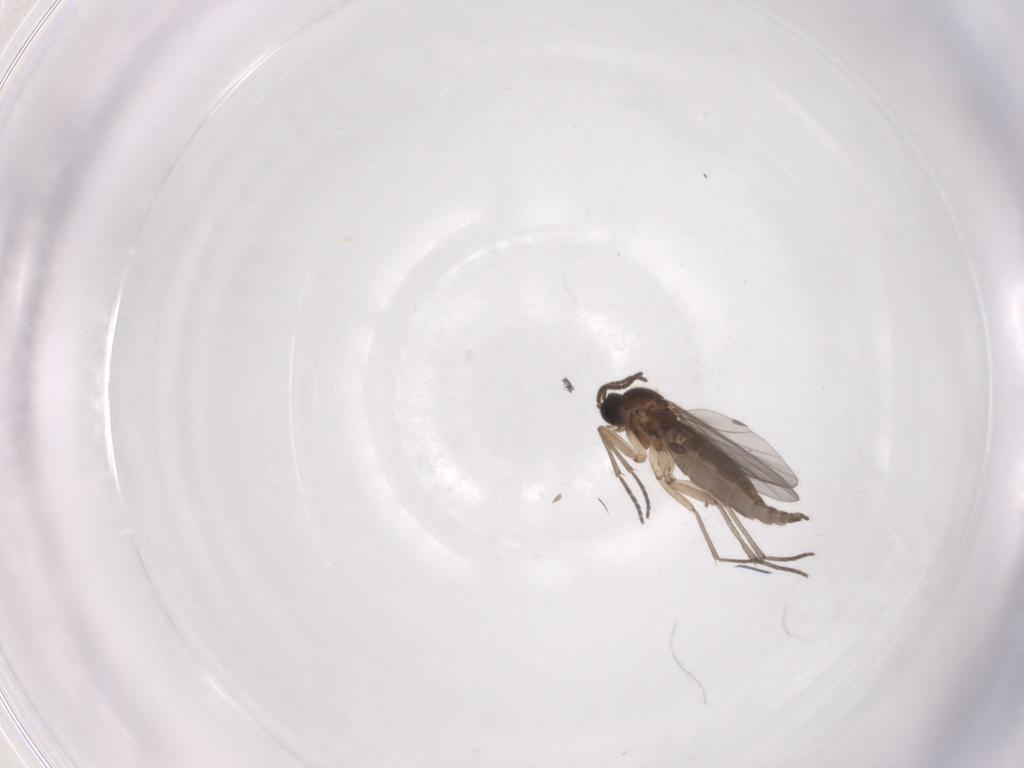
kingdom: Animalia
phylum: Arthropoda
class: Insecta
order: Diptera
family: Sciaridae
